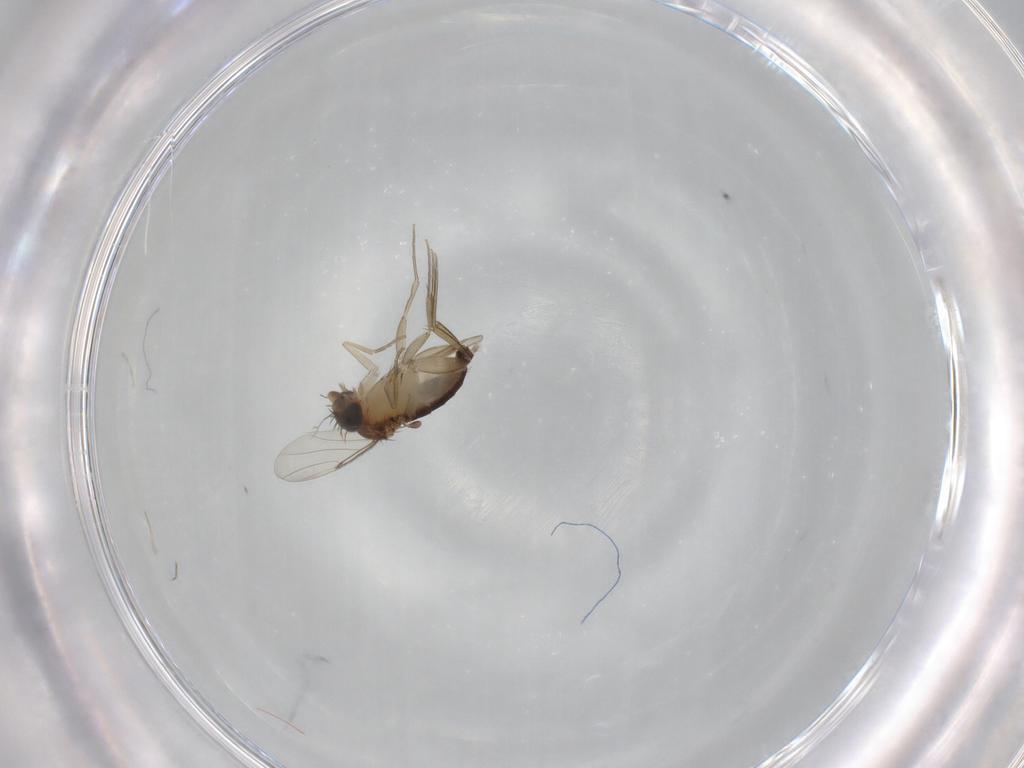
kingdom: Animalia
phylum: Arthropoda
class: Insecta
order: Diptera
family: Phoridae
